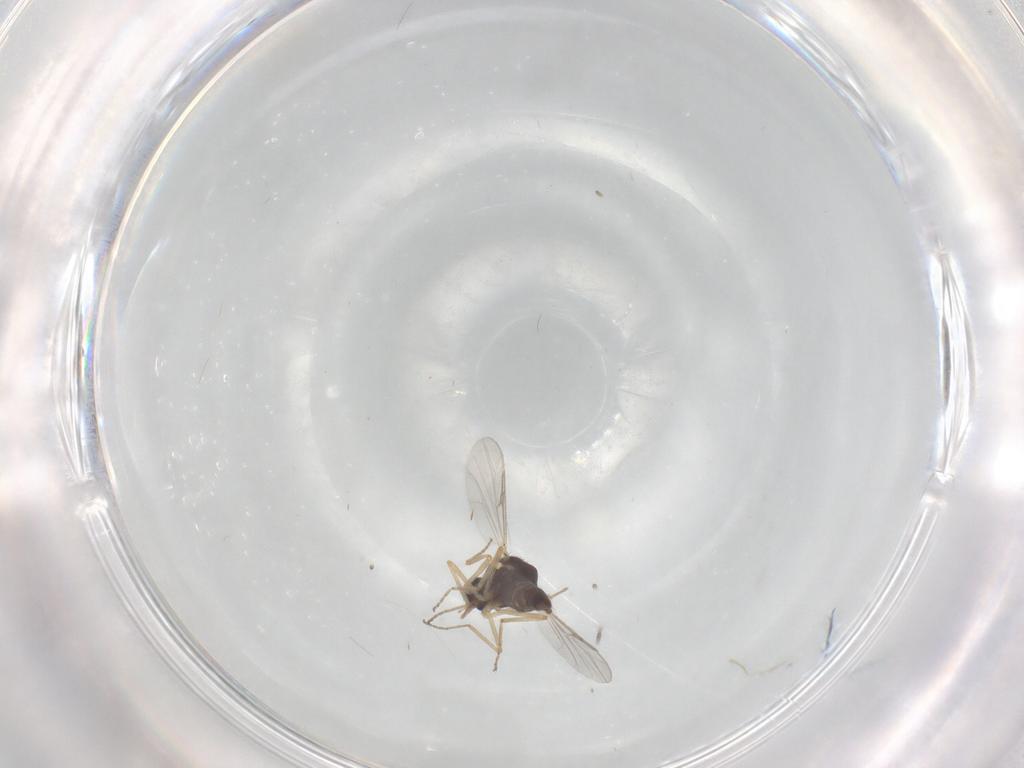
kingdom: Animalia
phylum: Arthropoda
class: Insecta
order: Diptera
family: Ceratopogonidae
